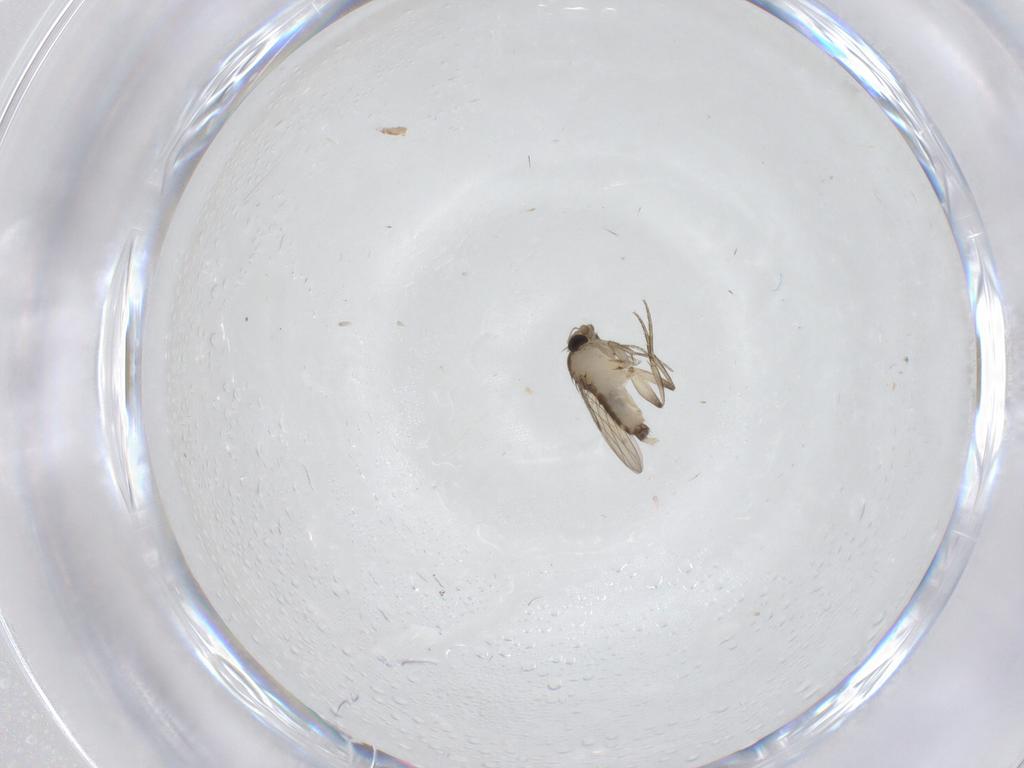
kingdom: Animalia
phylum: Arthropoda
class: Insecta
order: Diptera
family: Phoridae
